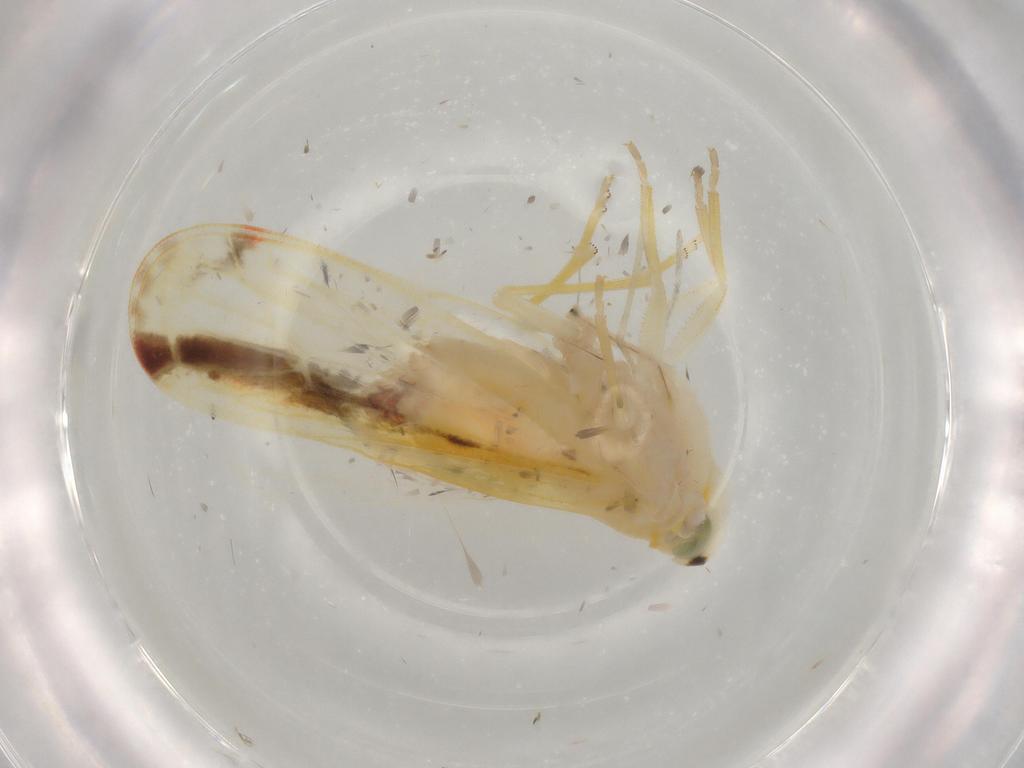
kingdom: Animalia
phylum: Arthropoda
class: Insecta
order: Hemiptera
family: Derbidae
